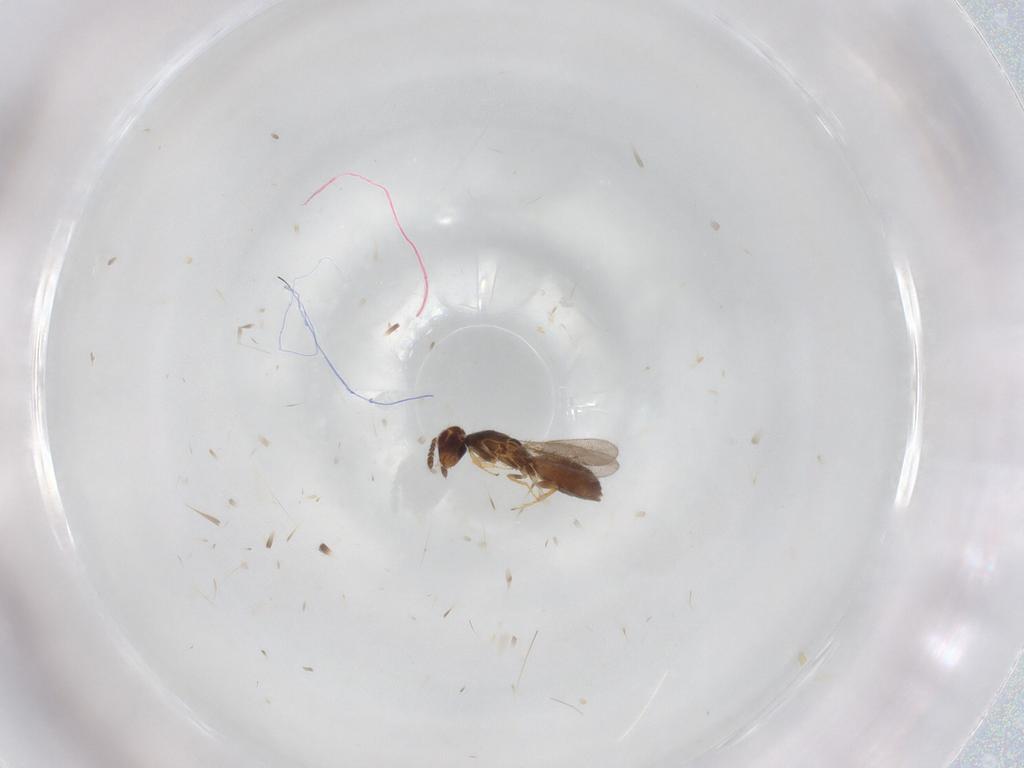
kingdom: Animalia
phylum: Arthropoda
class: Insecta
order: Hymenoptera
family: Eulophidae
